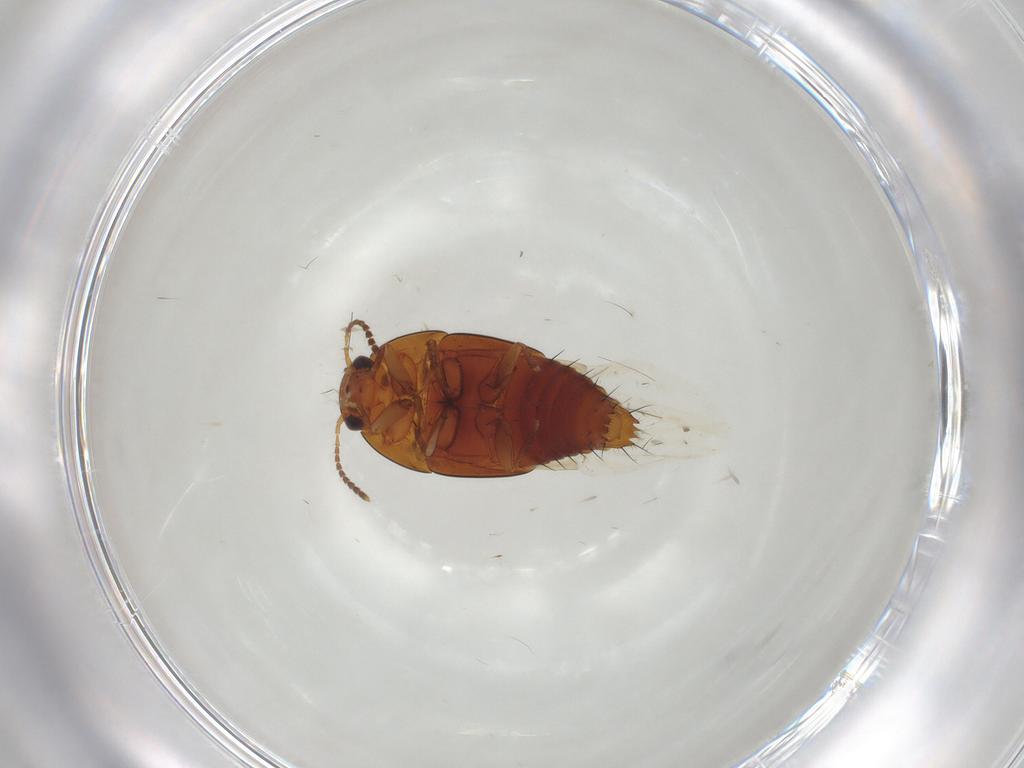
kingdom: Animalia
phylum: Arthropoda
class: Insecta
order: Coleoptera
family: Staphylinidae
